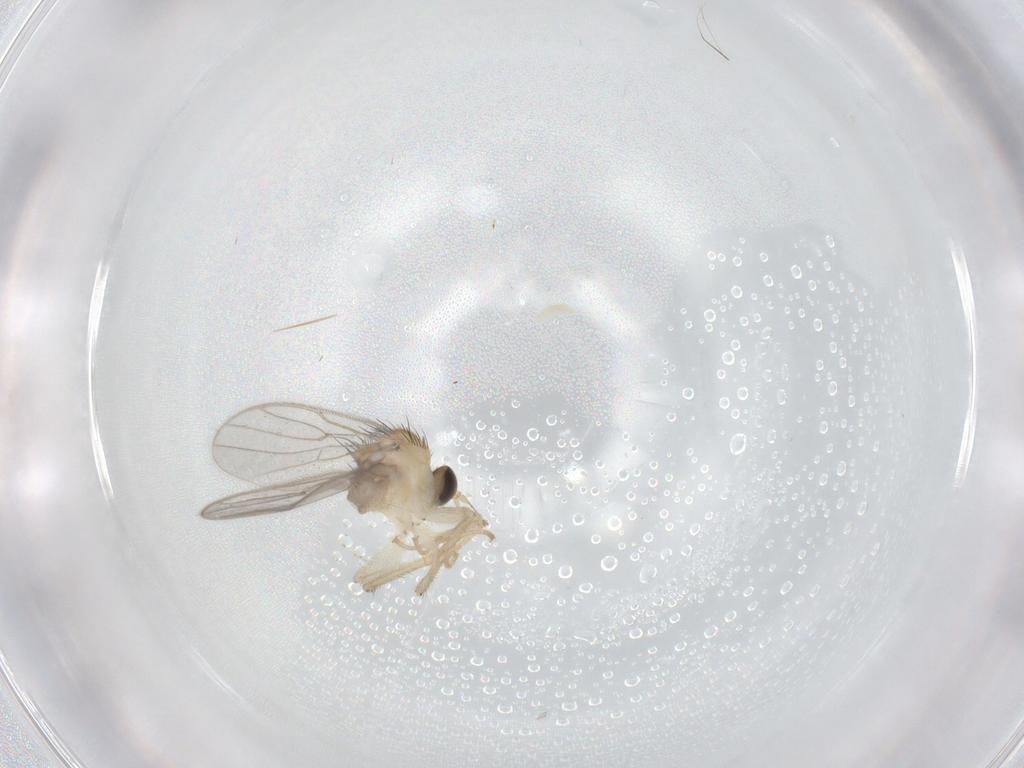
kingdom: Animalia
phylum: Arthropoda
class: Insecta
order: Diptera
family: Hybotidae
